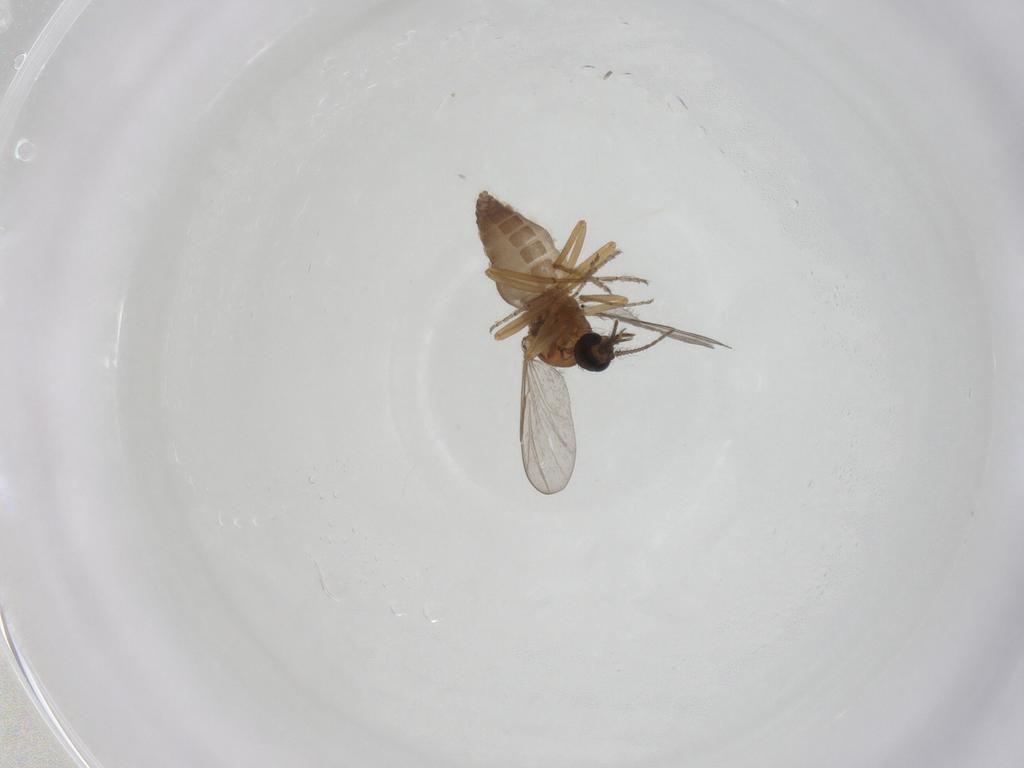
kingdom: Animalia
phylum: Arthropoda
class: Insecta
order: Diptera
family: Ceratopogonidae
